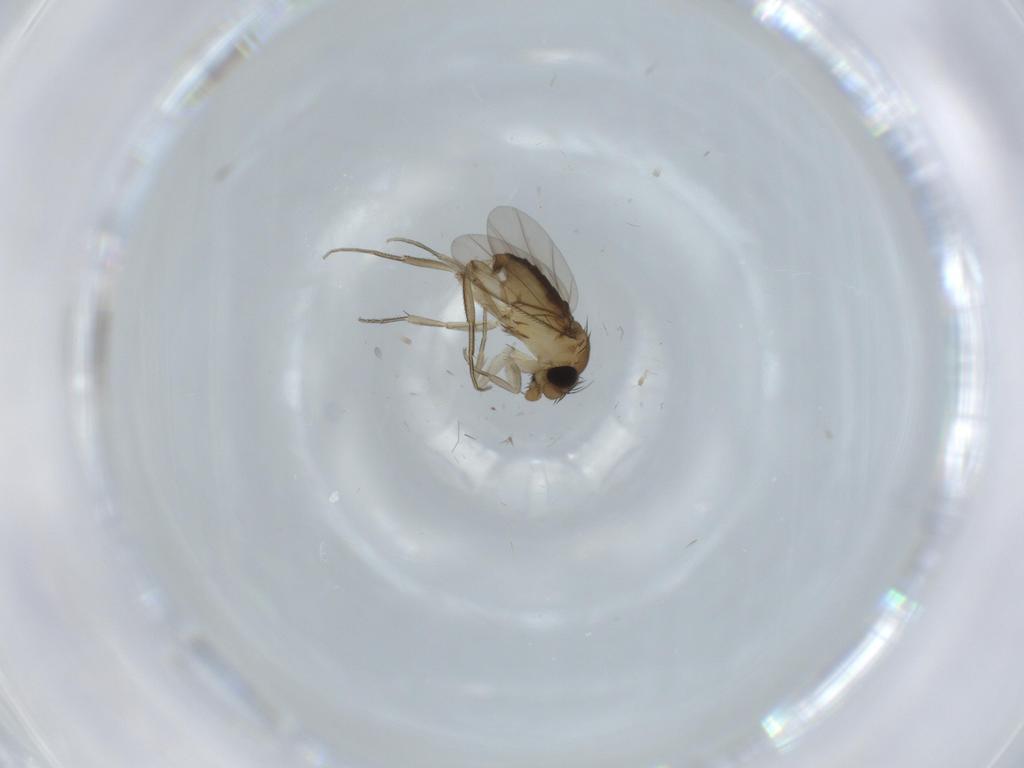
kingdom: Animalia
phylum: Arthropoda
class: Insecta
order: Diptera
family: Phoridae
